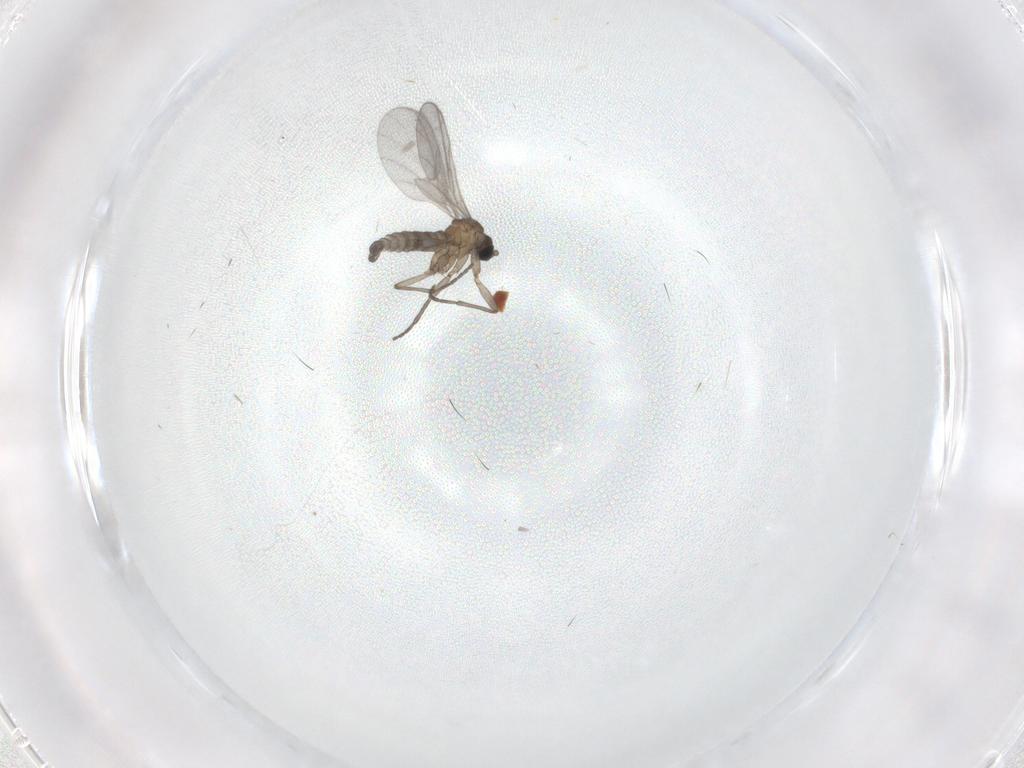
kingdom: Animalia
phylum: Arthropoda
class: Insecta
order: Diptera
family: Sciaridae
